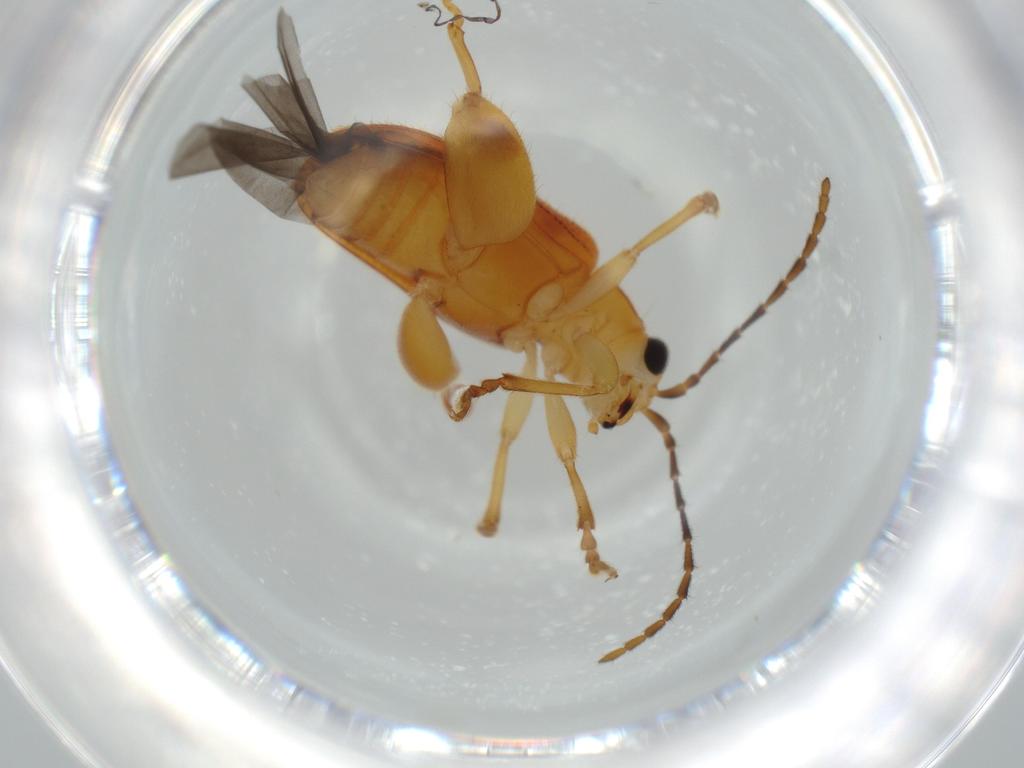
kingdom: Animalia
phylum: Arthropoda
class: Insecta
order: Coleoptera
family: Chrysomelidae
